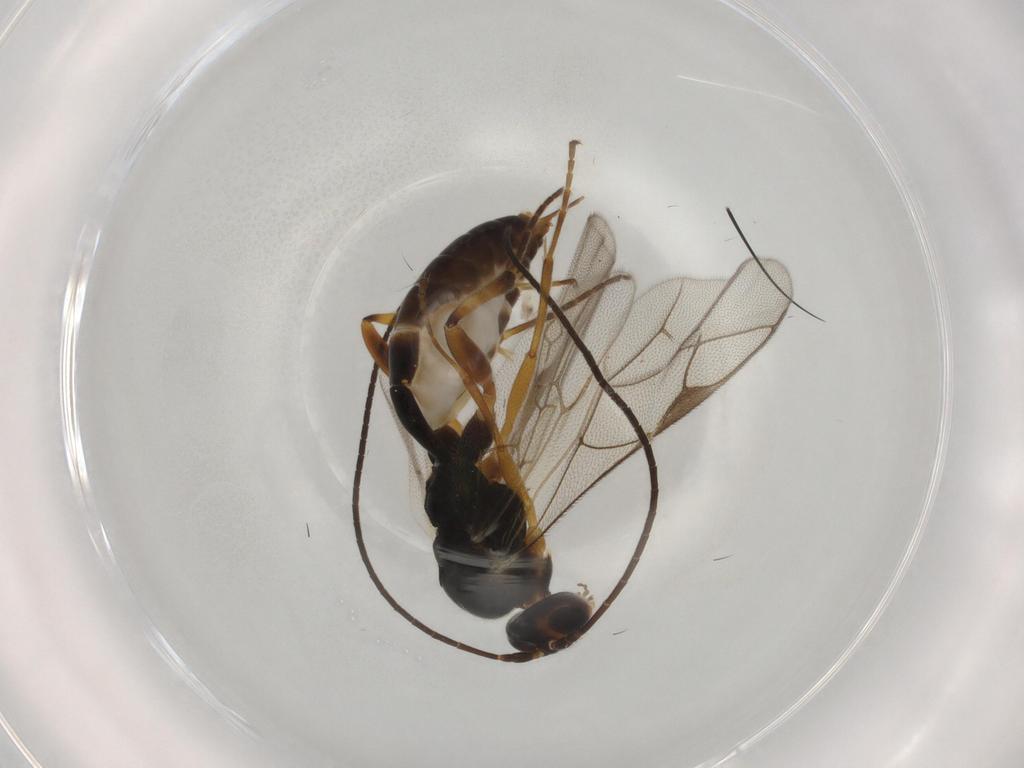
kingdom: Animalia
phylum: Arthropoda
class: Insecta
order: Hymenoptera
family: Ichneumonidae
